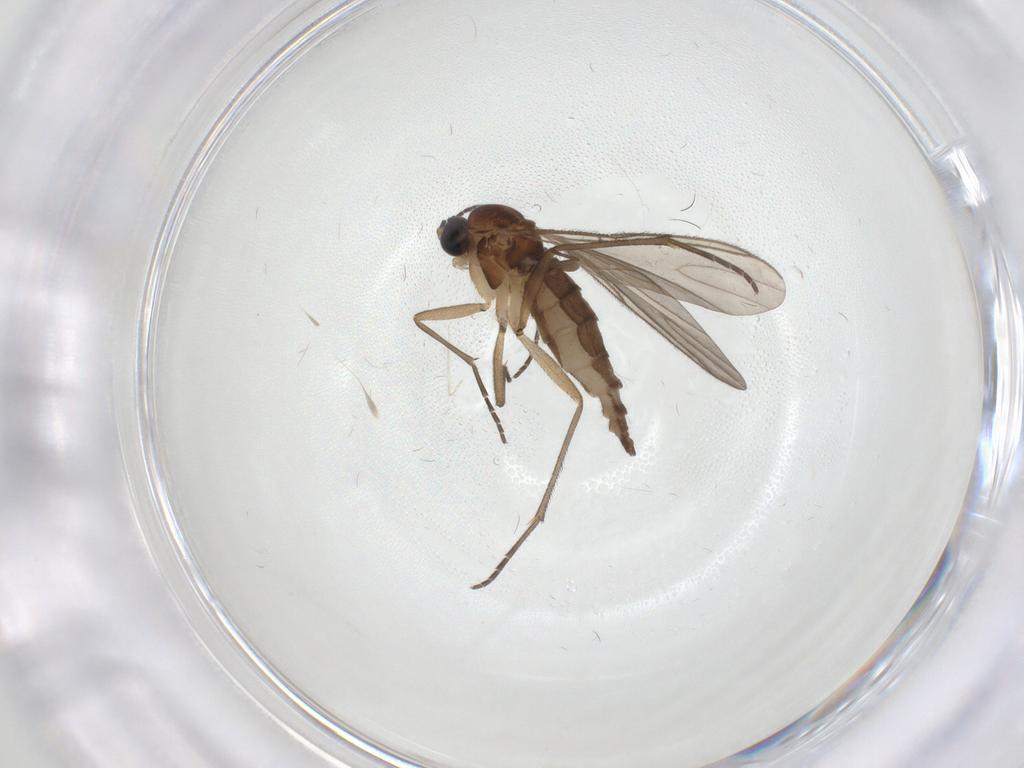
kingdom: Animalia
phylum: Arthropoda
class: Insecta
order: Diptera
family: Sciaridae
